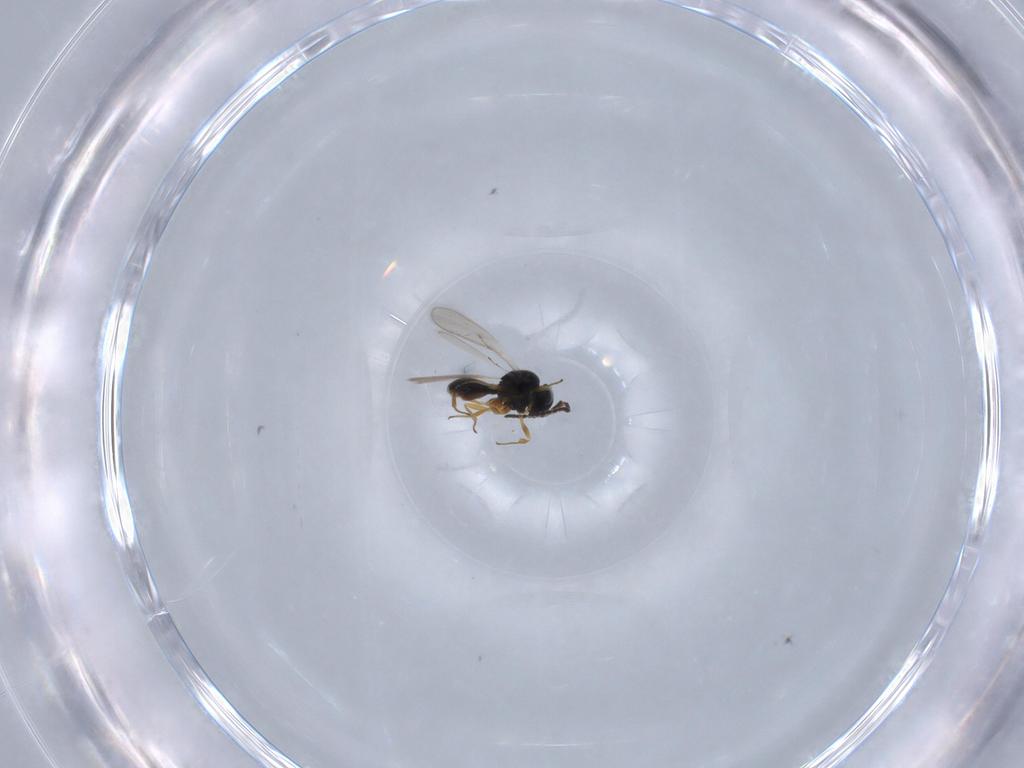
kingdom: Animalia
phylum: Arthropoda
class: Insecta
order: Hymenoptera
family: Scelionidae
